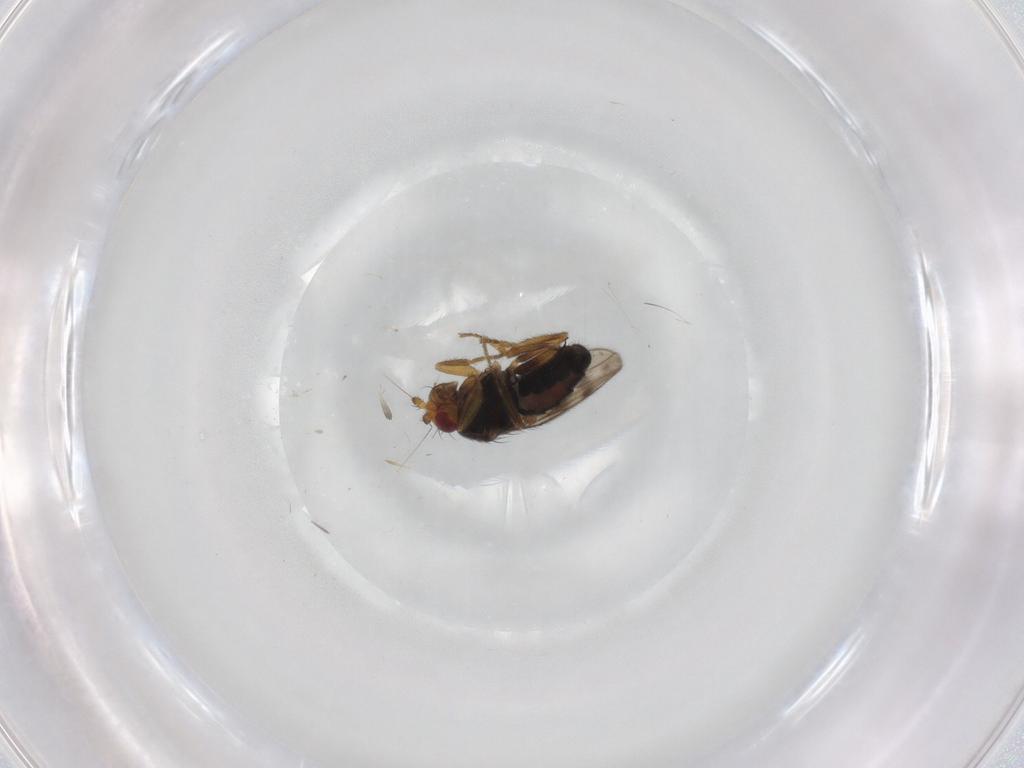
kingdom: Animalia
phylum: Arthropoda
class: Insecta
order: Diptera
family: Sphaeroceridae
